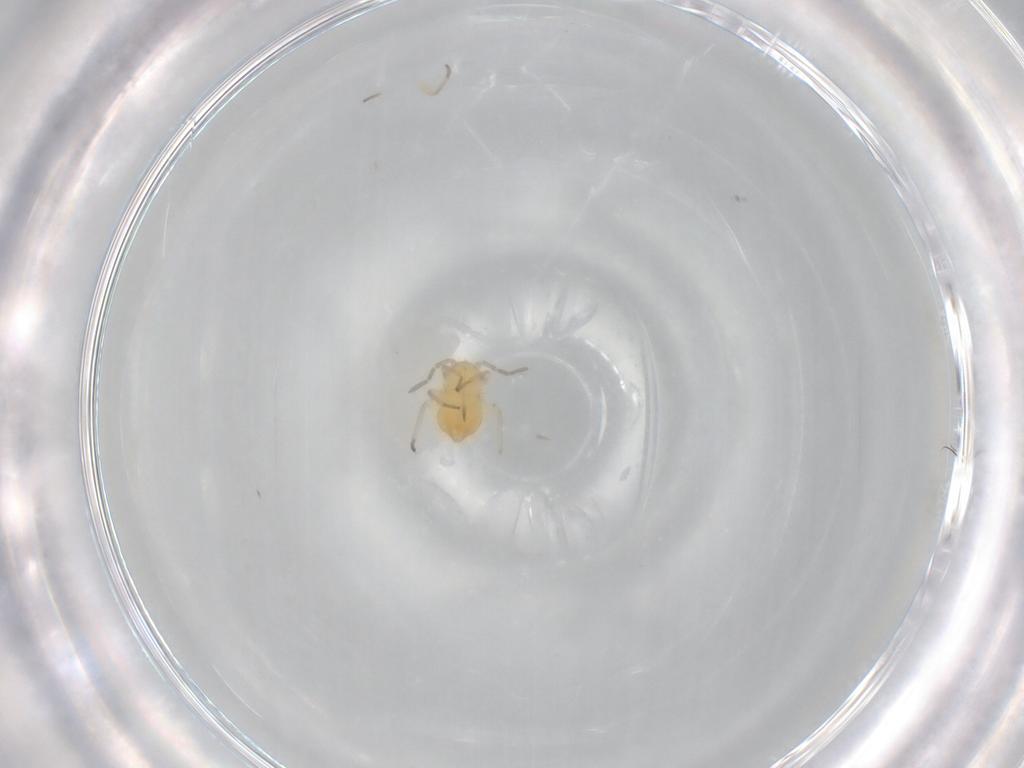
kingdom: Animalia
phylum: Arthropoda
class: Insecta
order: Hemiptera
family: Miridae
